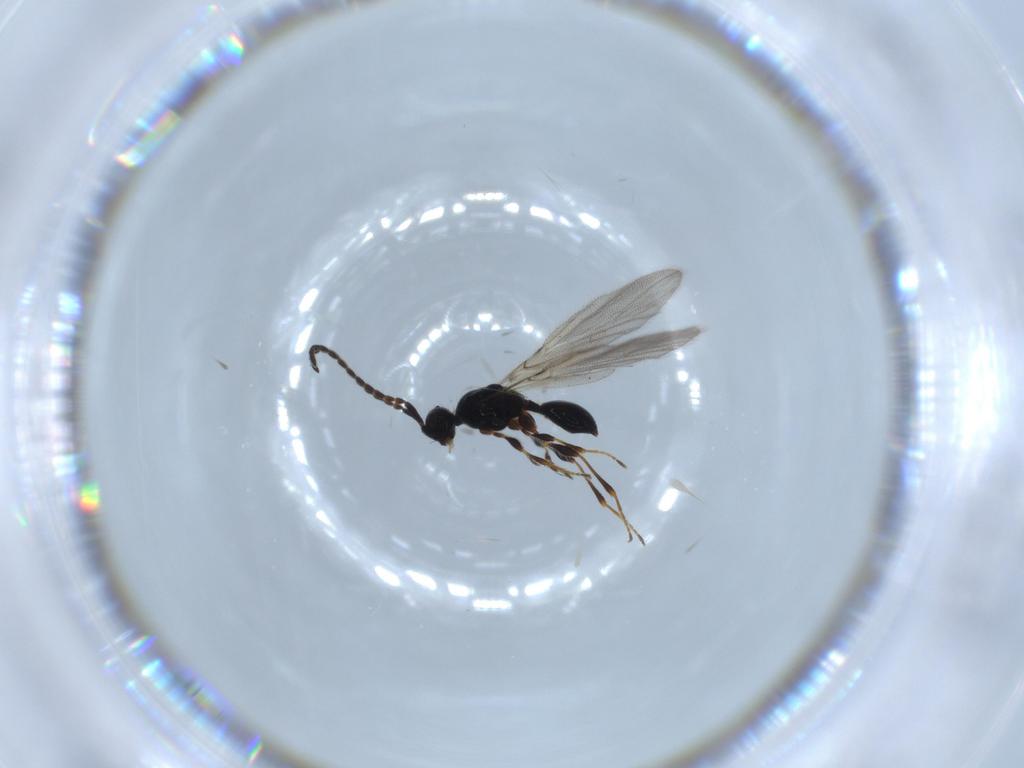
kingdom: Animalia
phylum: Arthropoda
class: Insecta
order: Hymenoptera
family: Diapriidae
